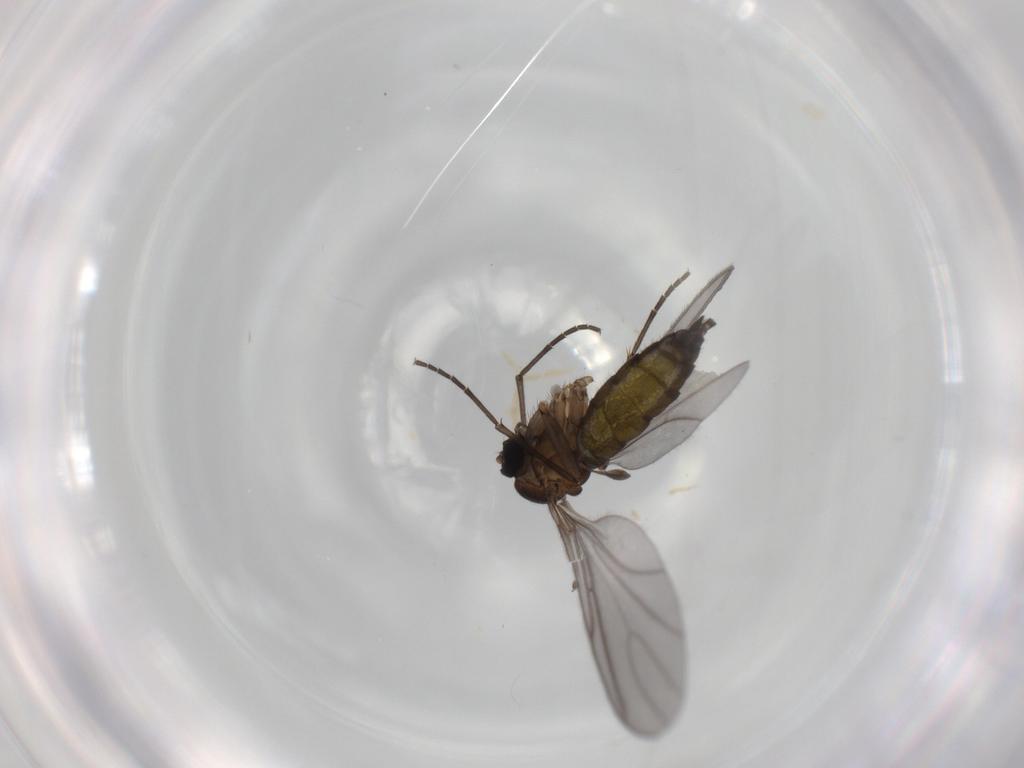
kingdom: Animalia
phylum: Arthropoda
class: Insecta
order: Diptera
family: Sciaridae
